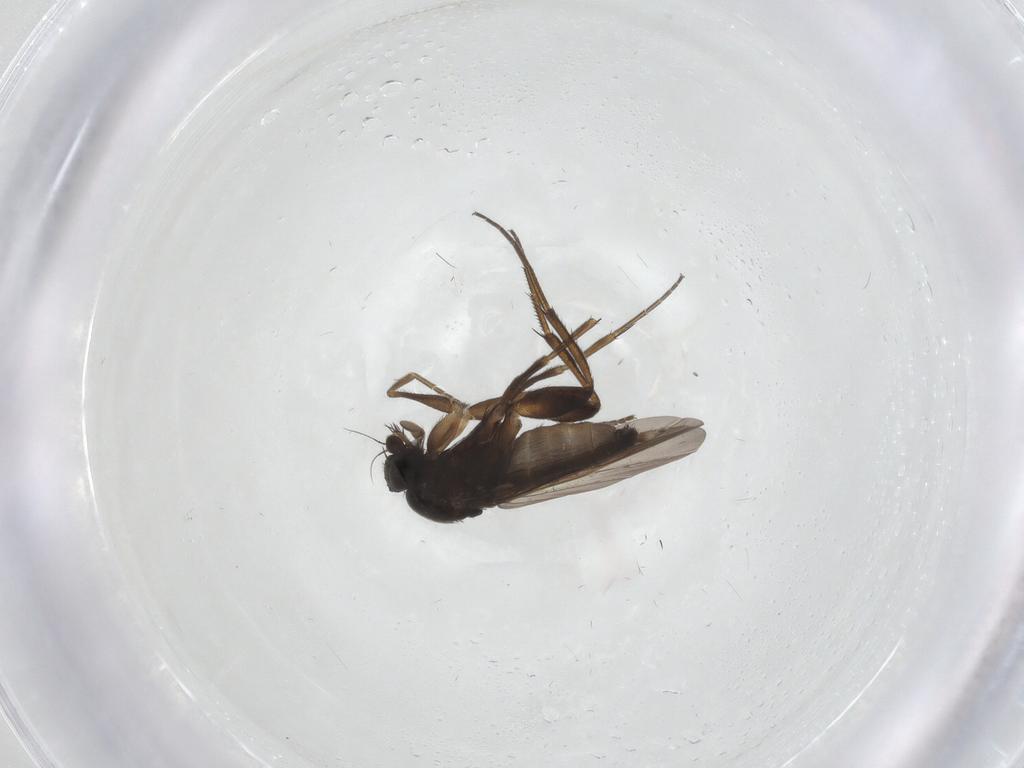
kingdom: Animalia
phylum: Arthropoda
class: Insecta
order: Diptera
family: Phoridae
